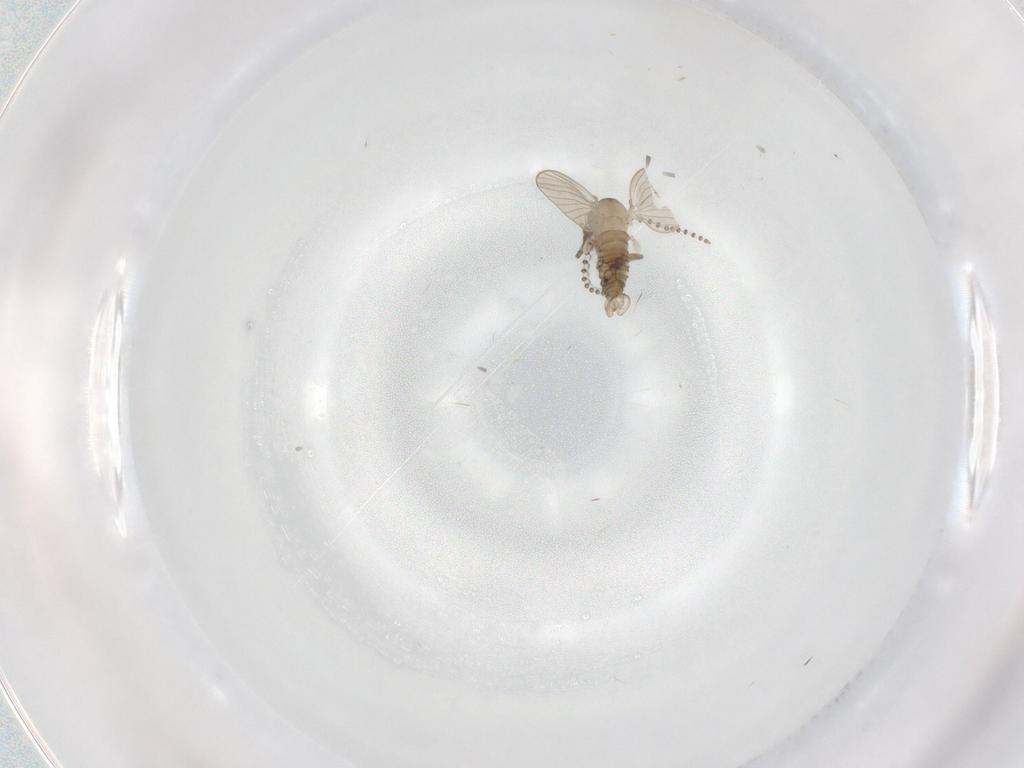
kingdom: Animalia
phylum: Arthropoda
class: Insecta
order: Diptera
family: Psychodidae
